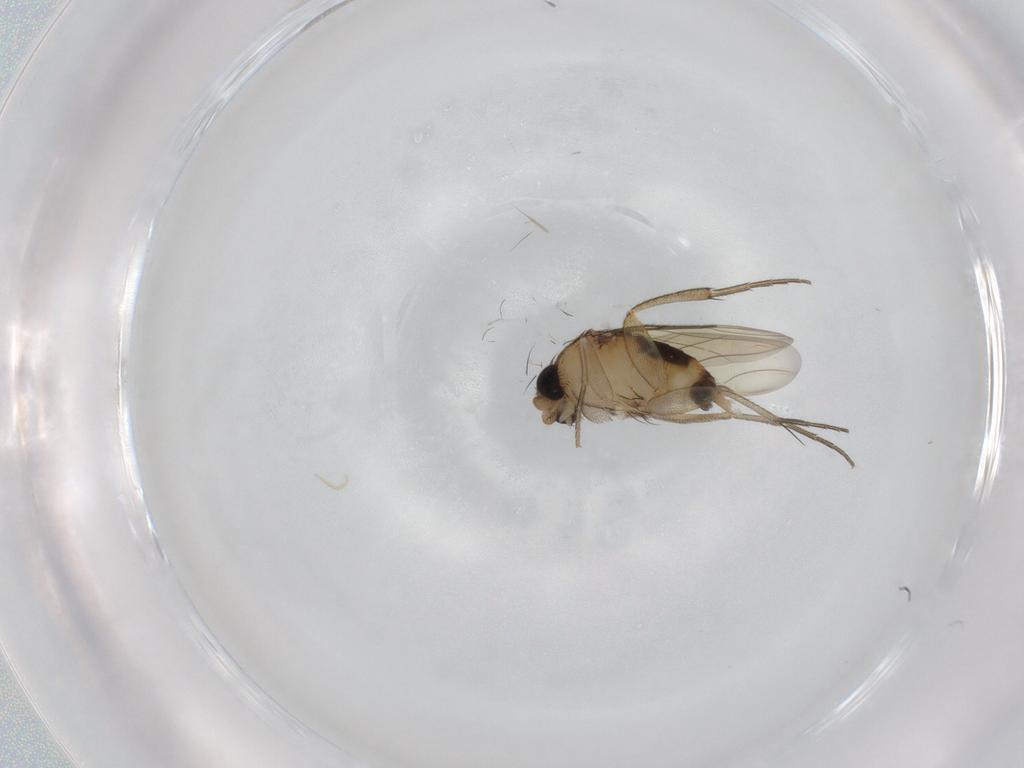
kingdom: Animalia
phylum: Arthropoda
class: Insecta
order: Diptera
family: Phoridae
